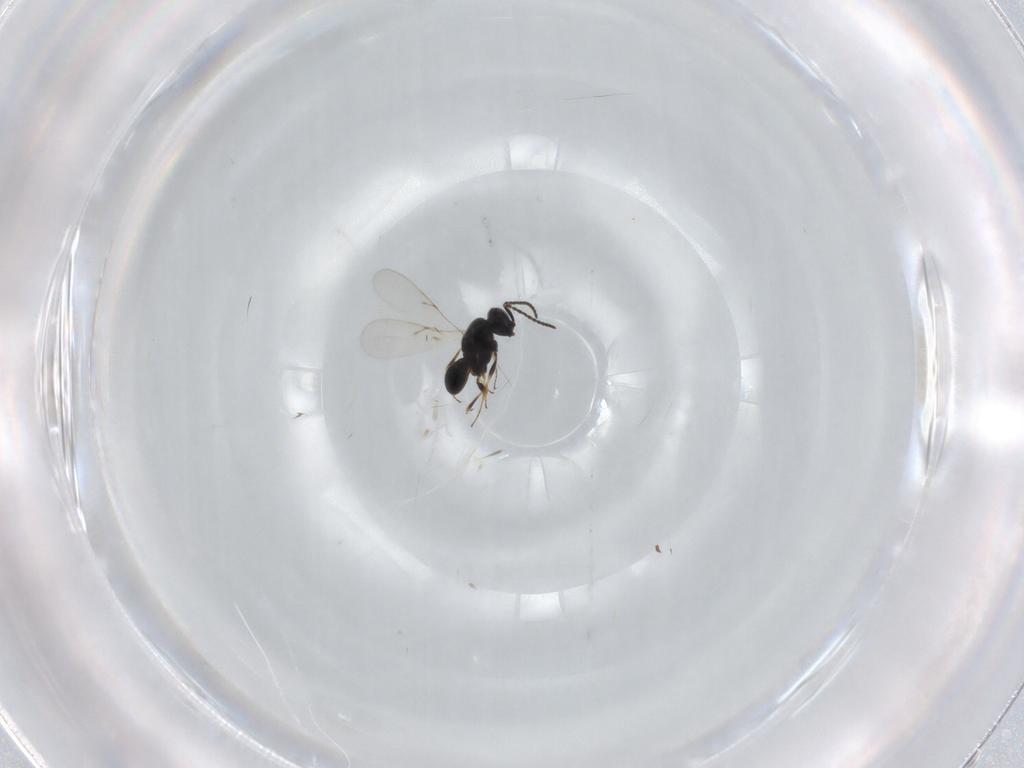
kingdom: Animalia
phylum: Arthropoda
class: Insecta
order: Hymenoptera
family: Scelionidae
